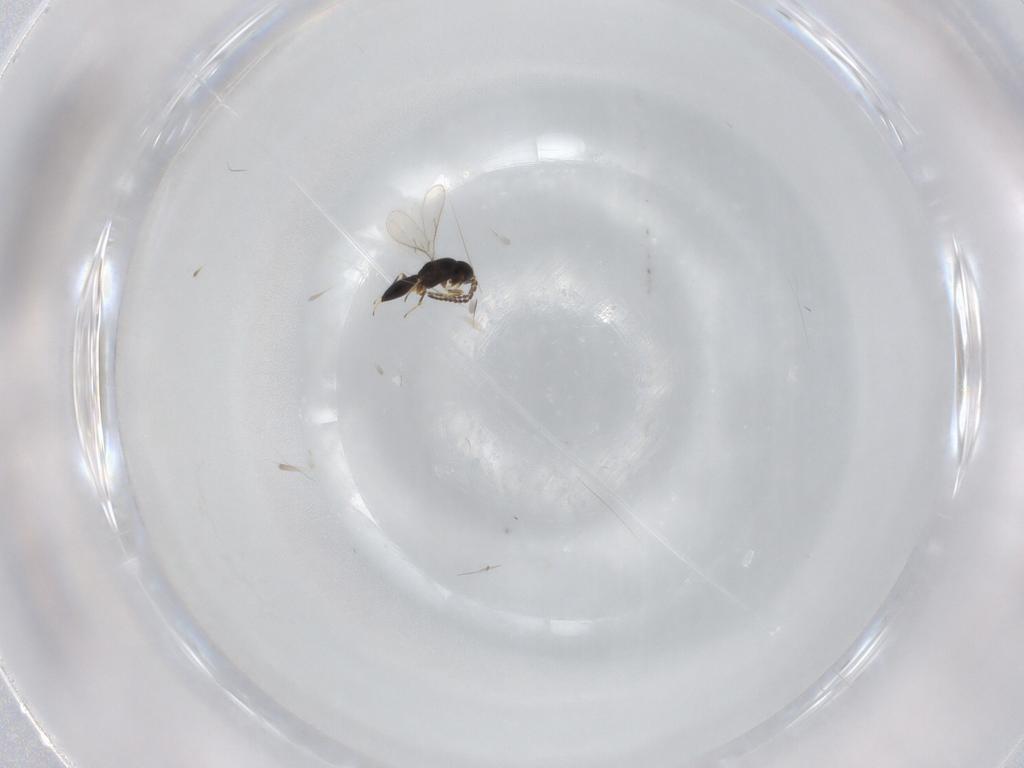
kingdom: Animalia
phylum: Arthropoda
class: Insecta
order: Hymenoptera
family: Scelionidae
